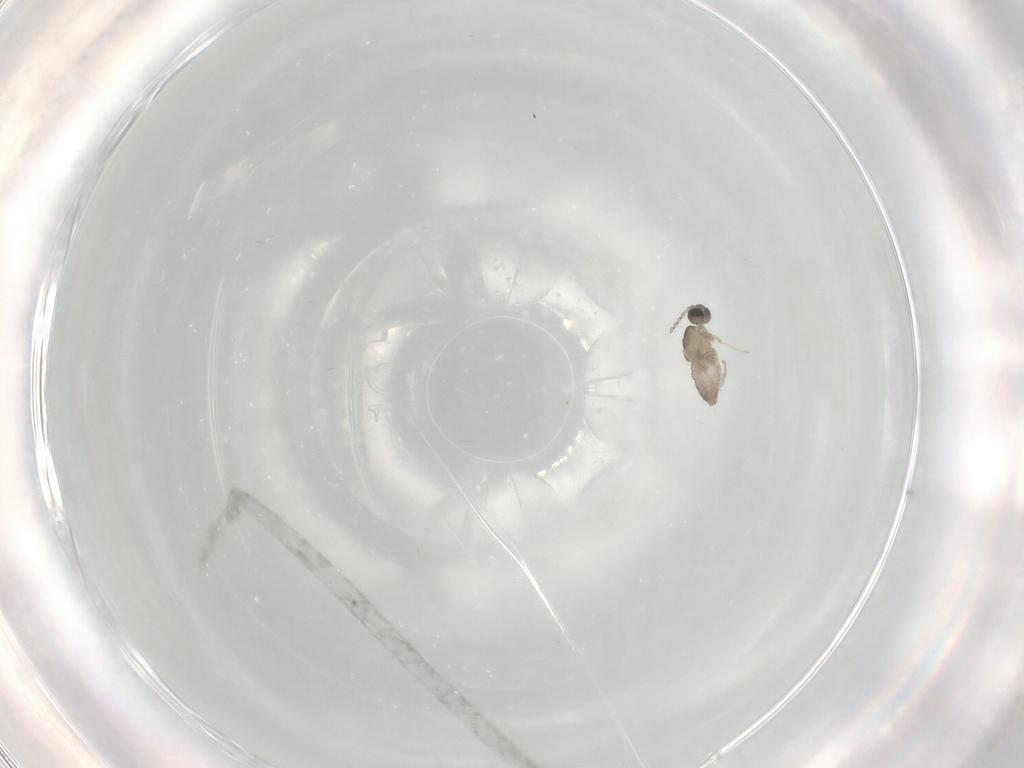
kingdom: Animalia
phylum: Arthropoda
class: Insecta
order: Diptera
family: Cecidomyiidae
